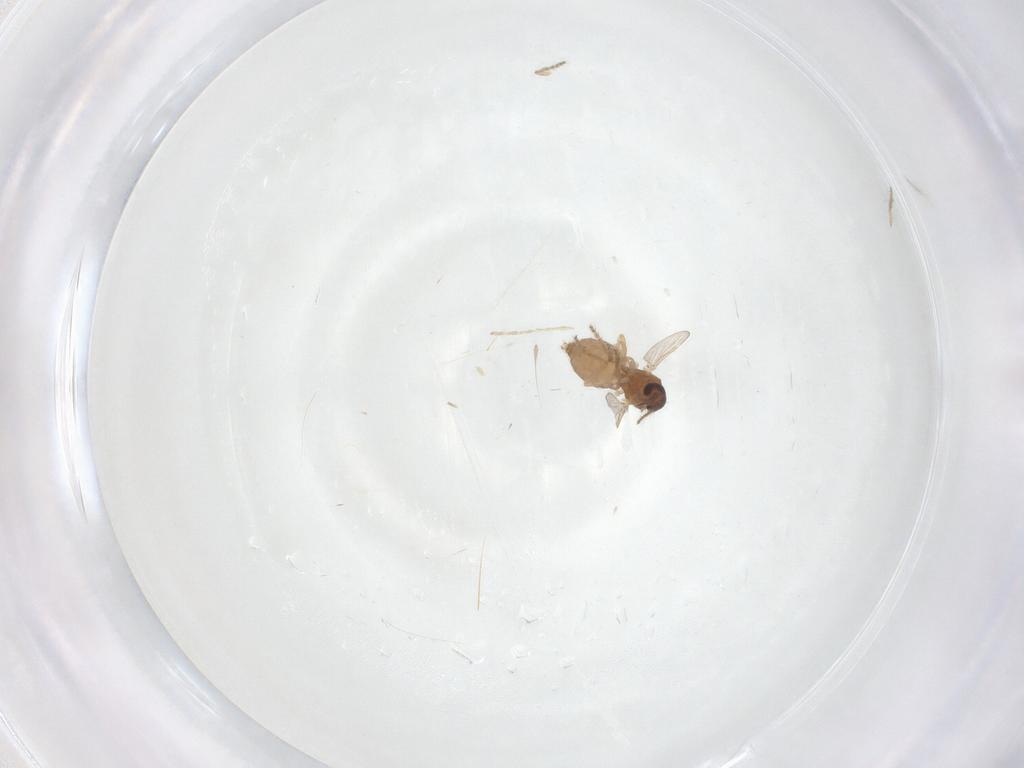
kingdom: Animalia
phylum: Arthropoda
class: Insecta
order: Diptera
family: Ceratopogonidae
